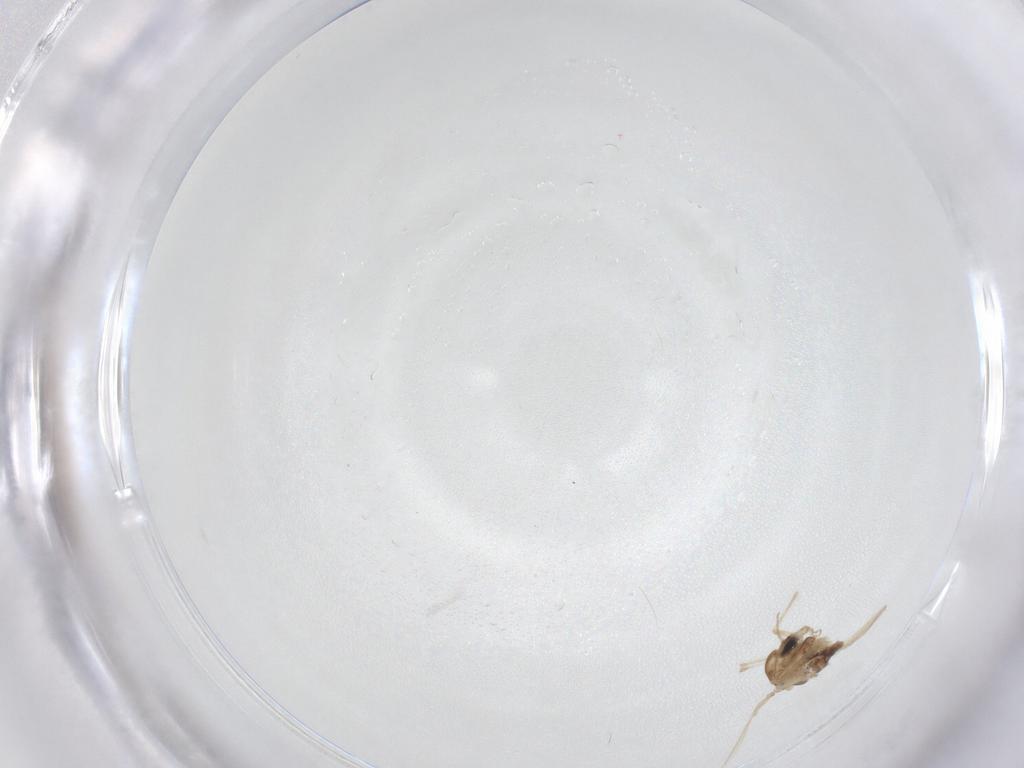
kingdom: Animalia
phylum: Arthropoda
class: Insecta
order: Diptera
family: Chironomidae
